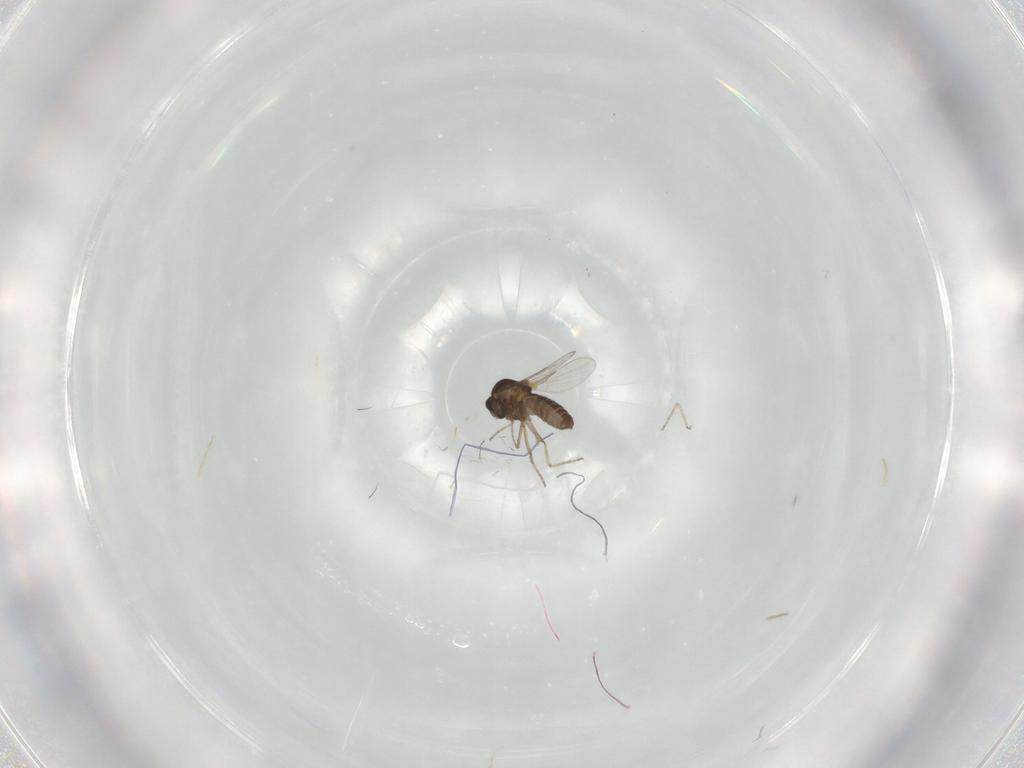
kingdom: Animalia
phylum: Arthropoda
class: Insecta
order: Diptera
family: Ceratopogonidae
